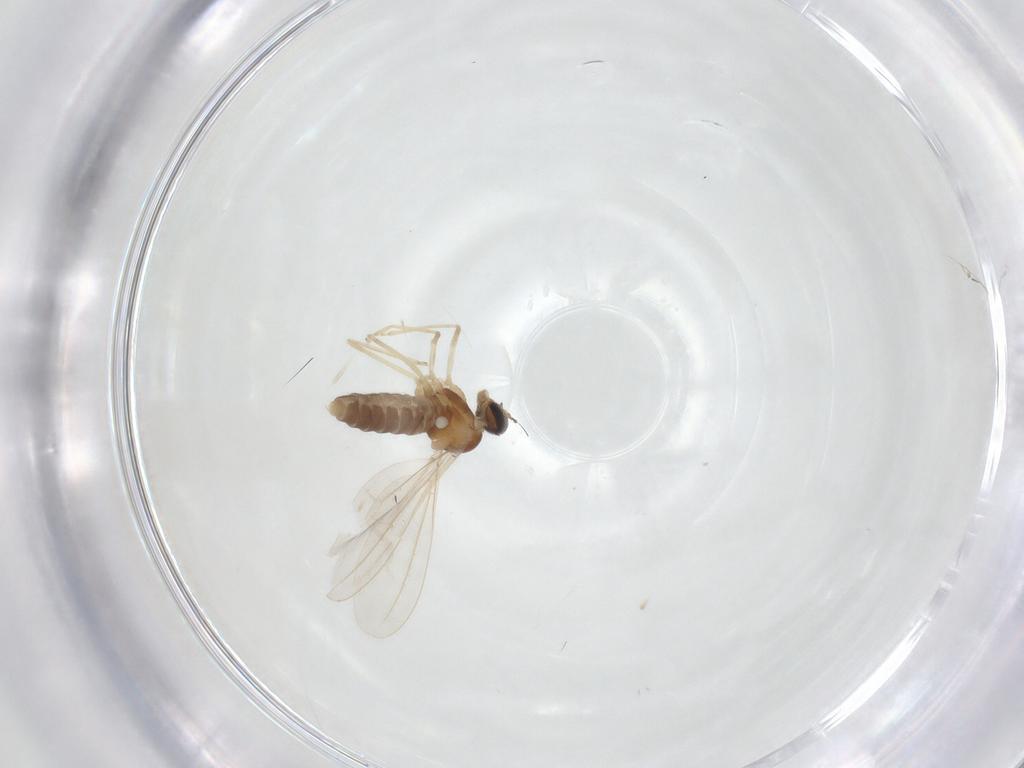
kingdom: Animalia
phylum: Arthropoda
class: Insecta
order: Diptera
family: Cecidomyiidae
